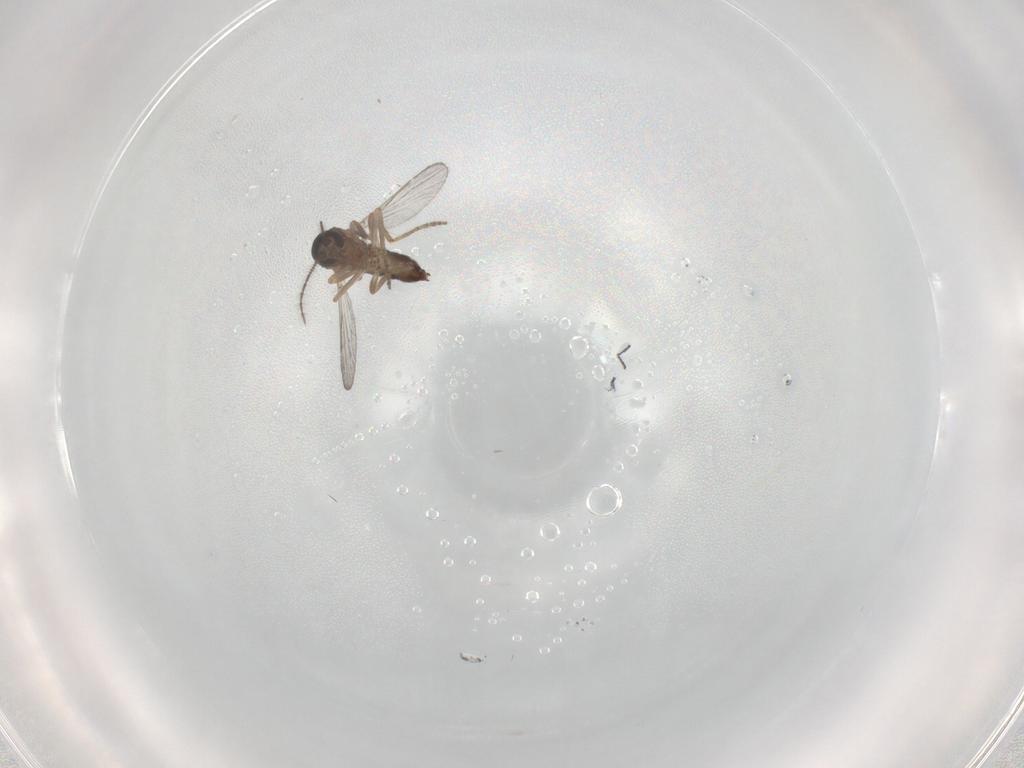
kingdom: Animalia
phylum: Arthropoda
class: Insecta
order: Diptera
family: Ceratopogonidae
